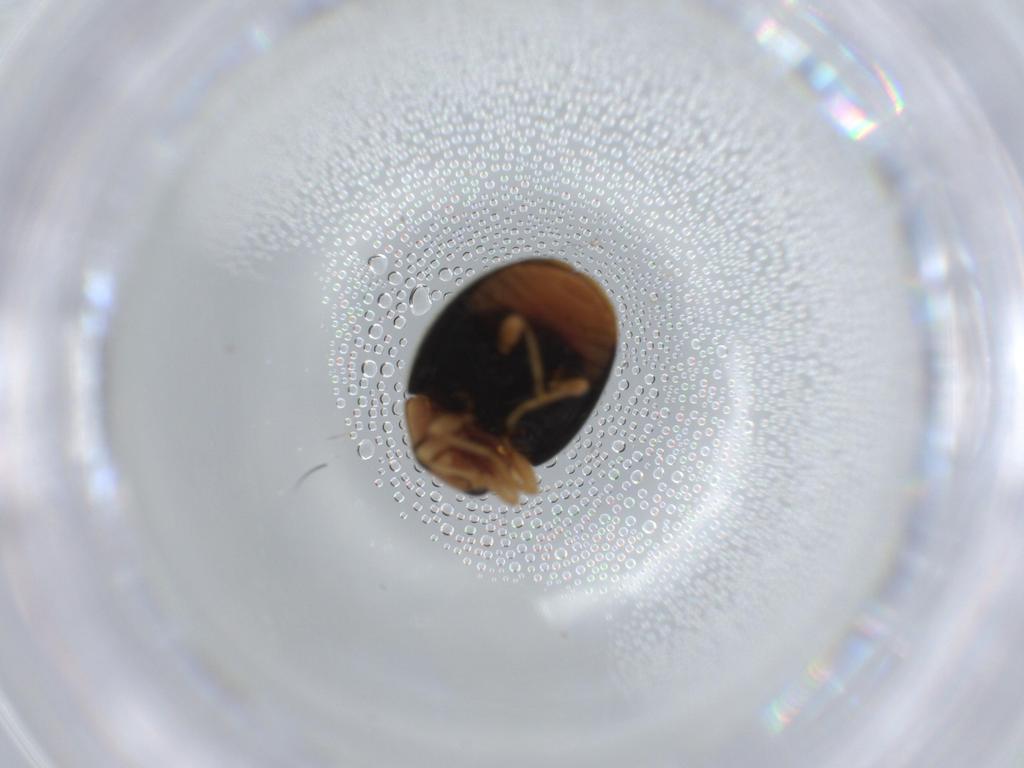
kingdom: Animalia
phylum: Arthropoda
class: Insecta
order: Coleoptera
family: Coccinellidae
